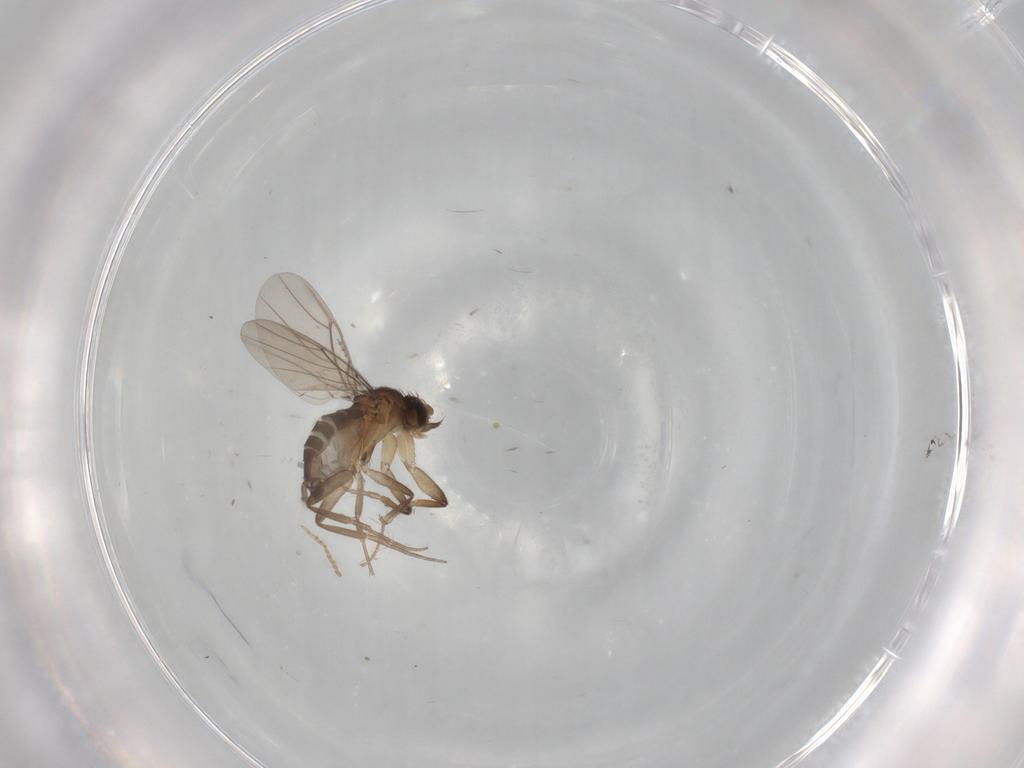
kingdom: Animalia
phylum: Arthropoda
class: Insecta
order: Diptera
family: Phoridae
